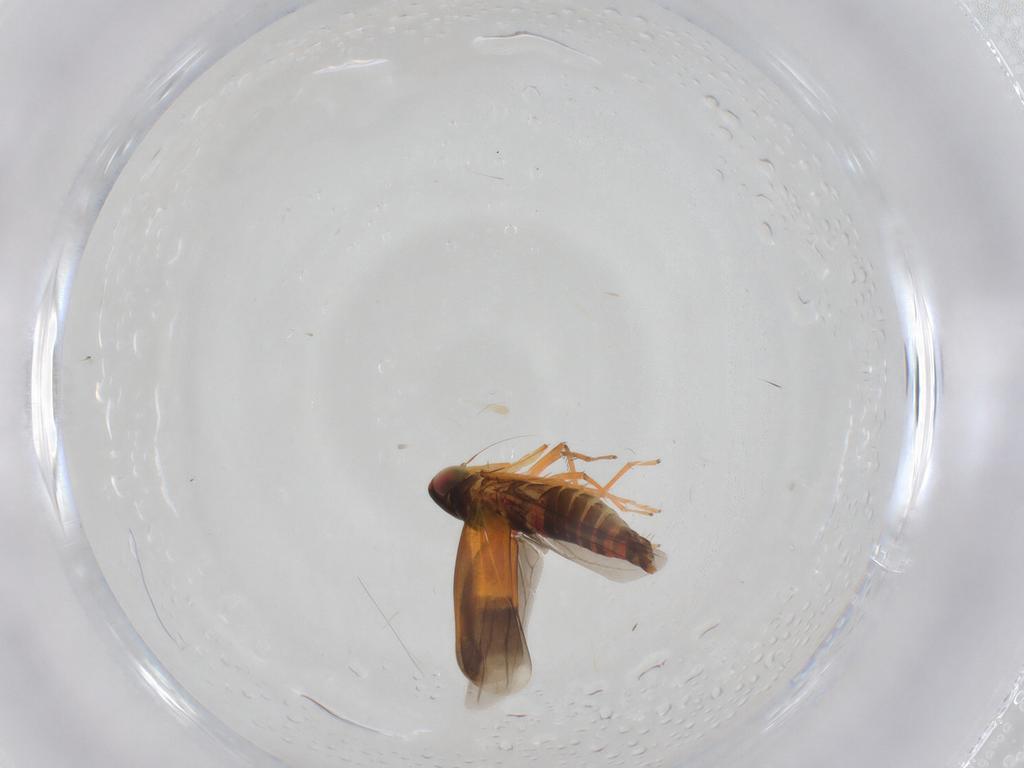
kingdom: Animalia
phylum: Arthropoda
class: Insecta
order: Hemiptera
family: Cicadellidae
